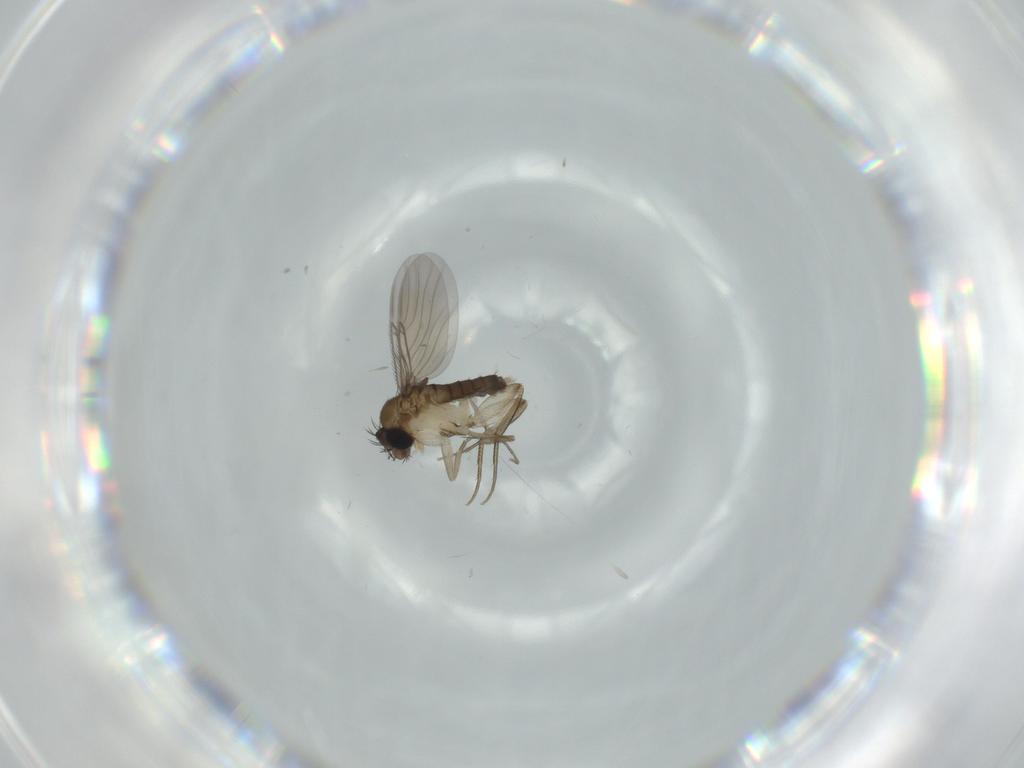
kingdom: Animalia
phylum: Arthropoda
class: Insecta
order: Diptera
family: Phoridae
